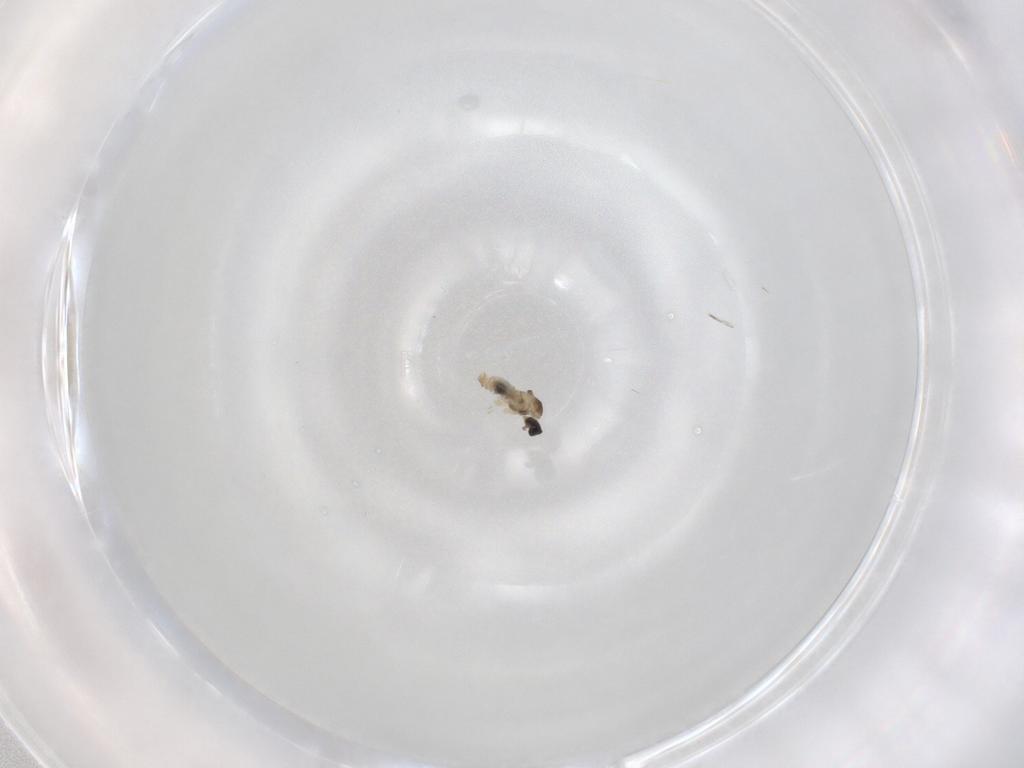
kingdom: Animalia
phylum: Arthropoda
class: Insecta
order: Diptera
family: Cecidomyiidae
